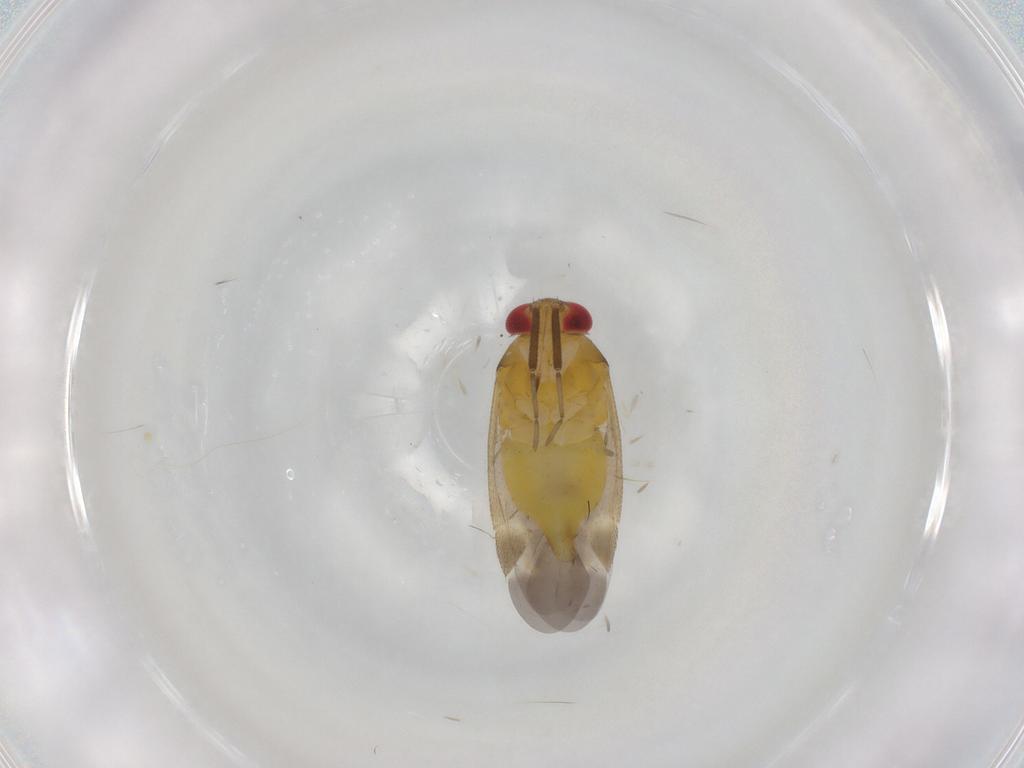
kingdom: Animalia
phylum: Arthropoda
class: Insecta
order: Hemiptera
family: Miridae
